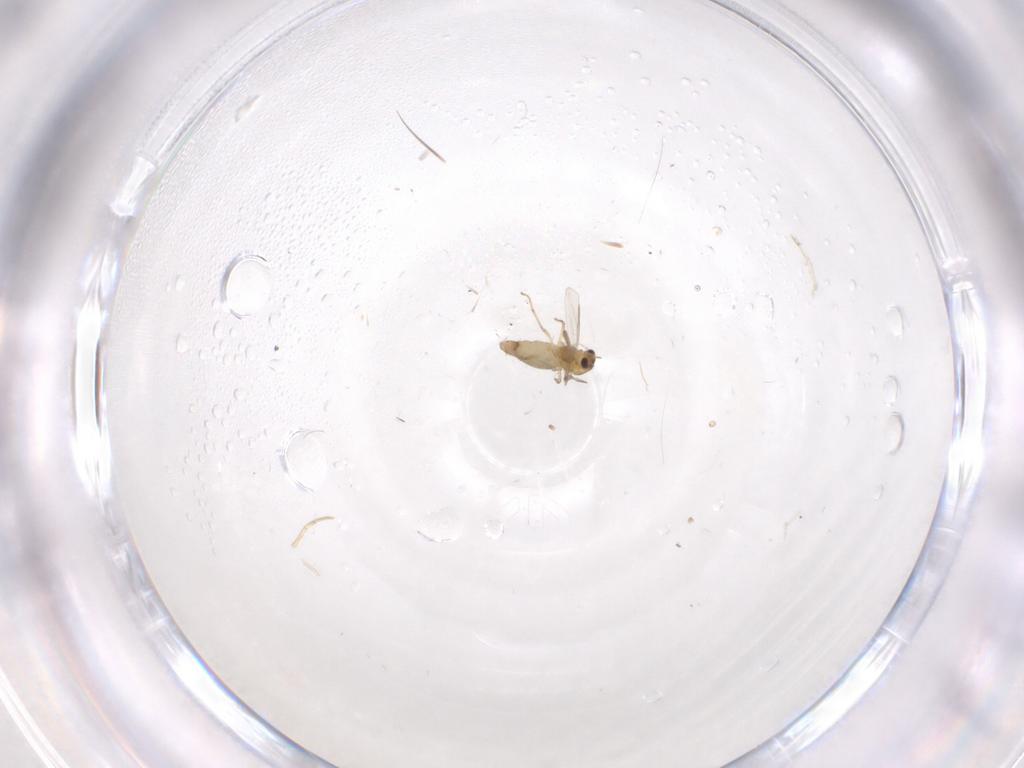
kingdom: Animalia
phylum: Arthropoda
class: Insecta
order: Diptera
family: Chironomidae
